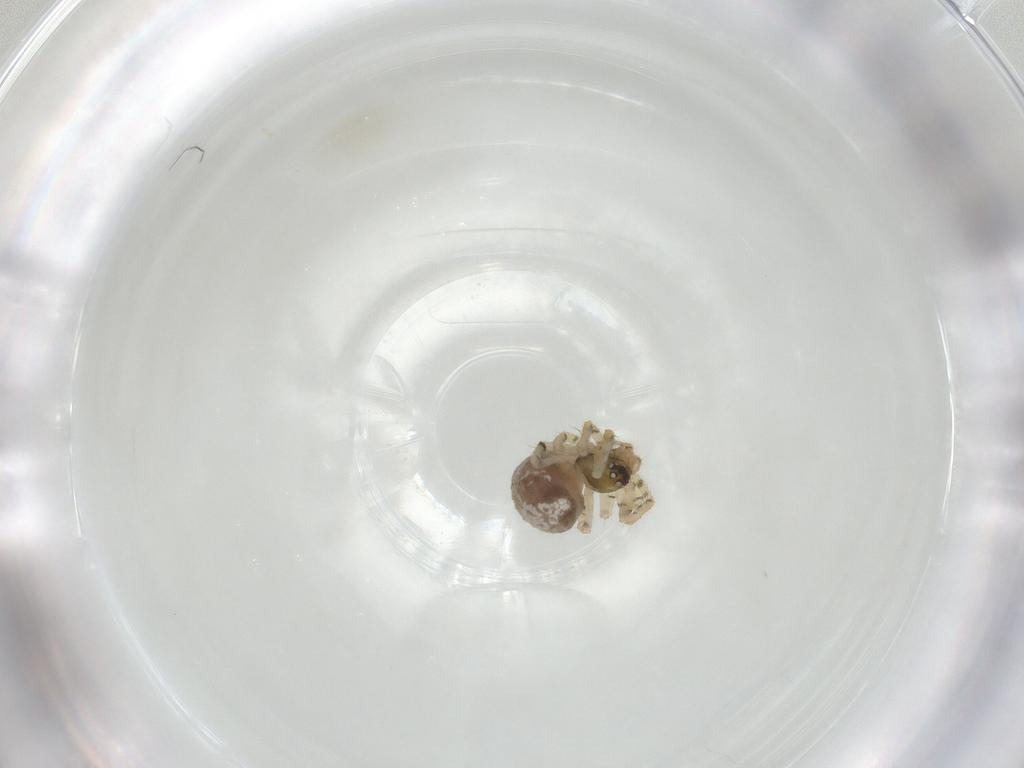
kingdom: Animalia
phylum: Arthropoda
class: Arachnida
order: Araneae
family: Theridiidae
